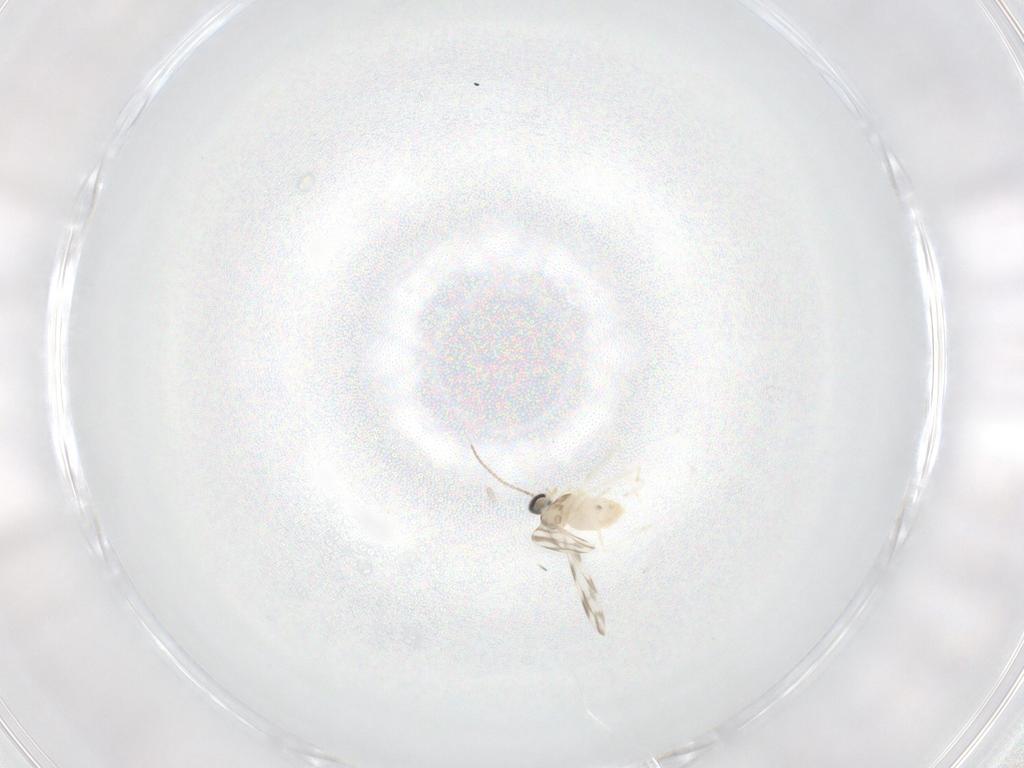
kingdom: Animalia
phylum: Arthropoda
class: Insecta
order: Diptera
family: Cecidomyiidae
